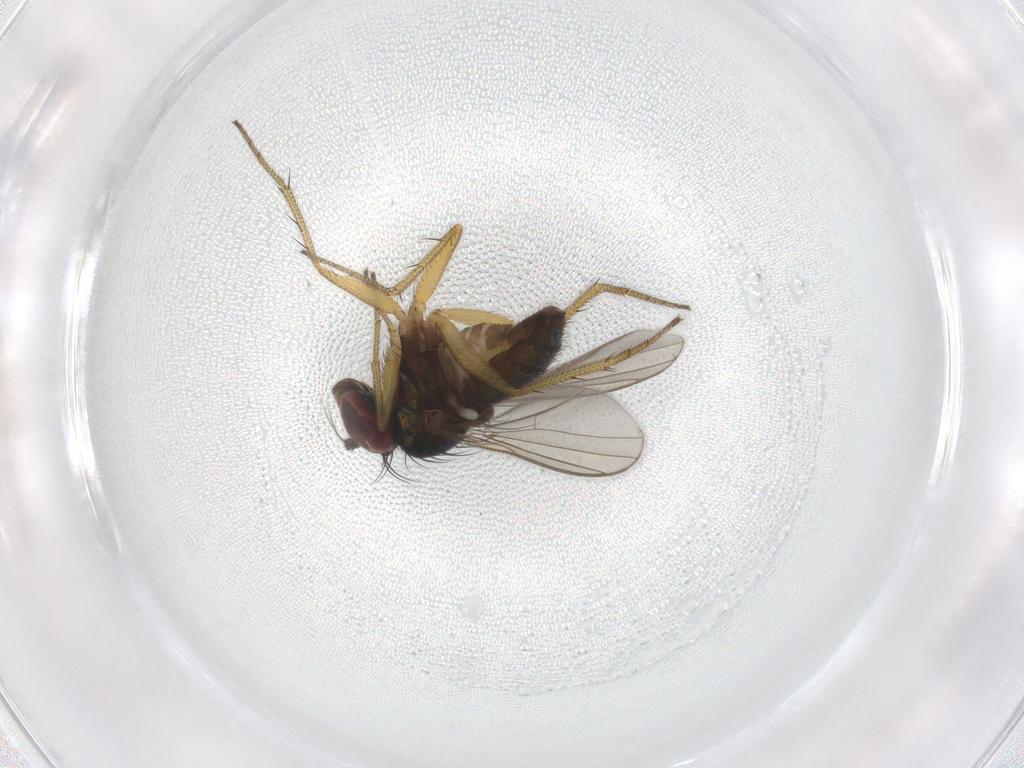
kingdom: Animalia
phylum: Arthropoda
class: Insecta
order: Diptera
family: Dolichopodidae
